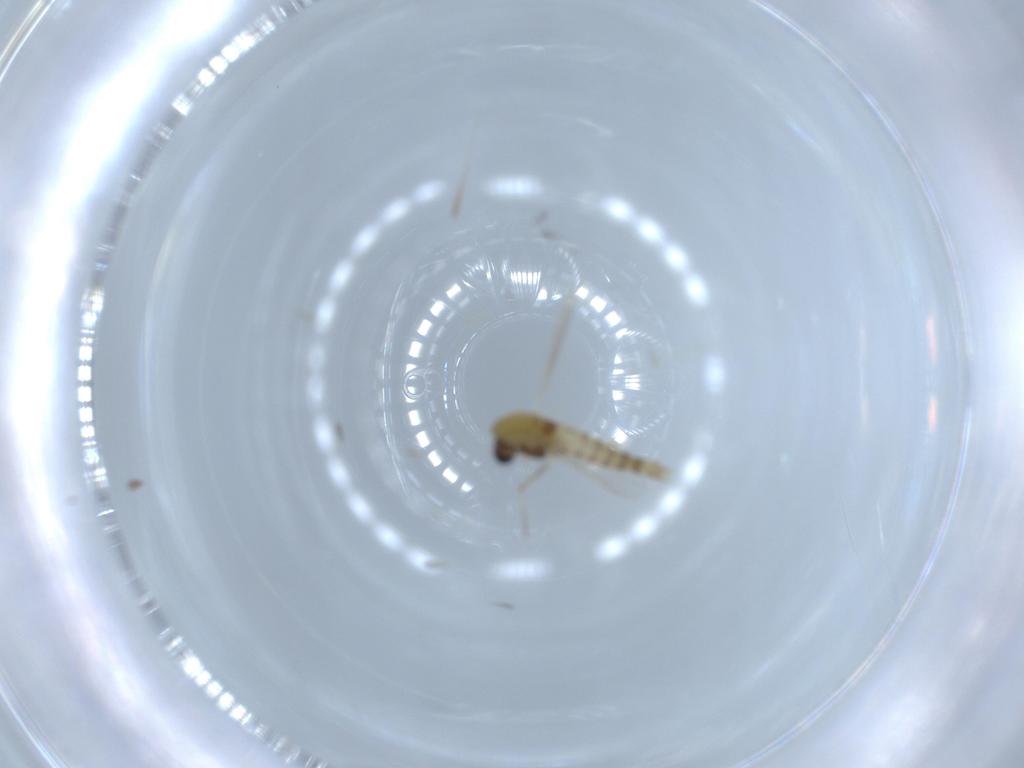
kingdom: Animalia
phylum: Arthropoda
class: Insecta
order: Diptera
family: Chironomidae
